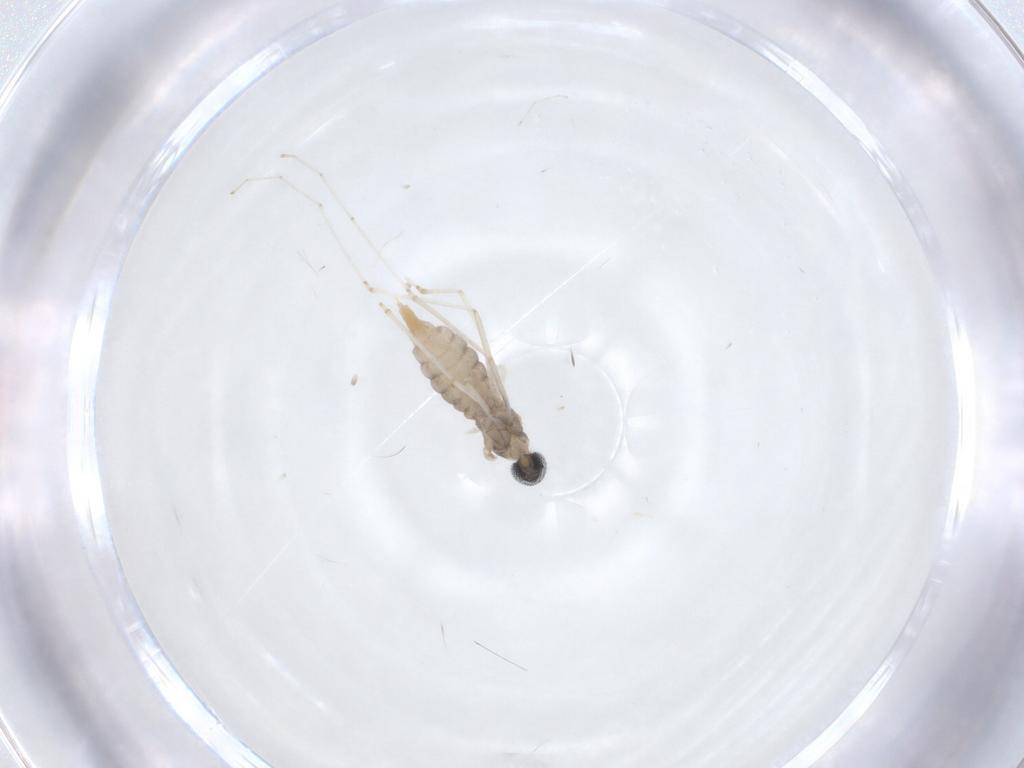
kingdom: Animalia
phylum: Arthropoda
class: Insecta
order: Diptera
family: Cecidomyiidae
